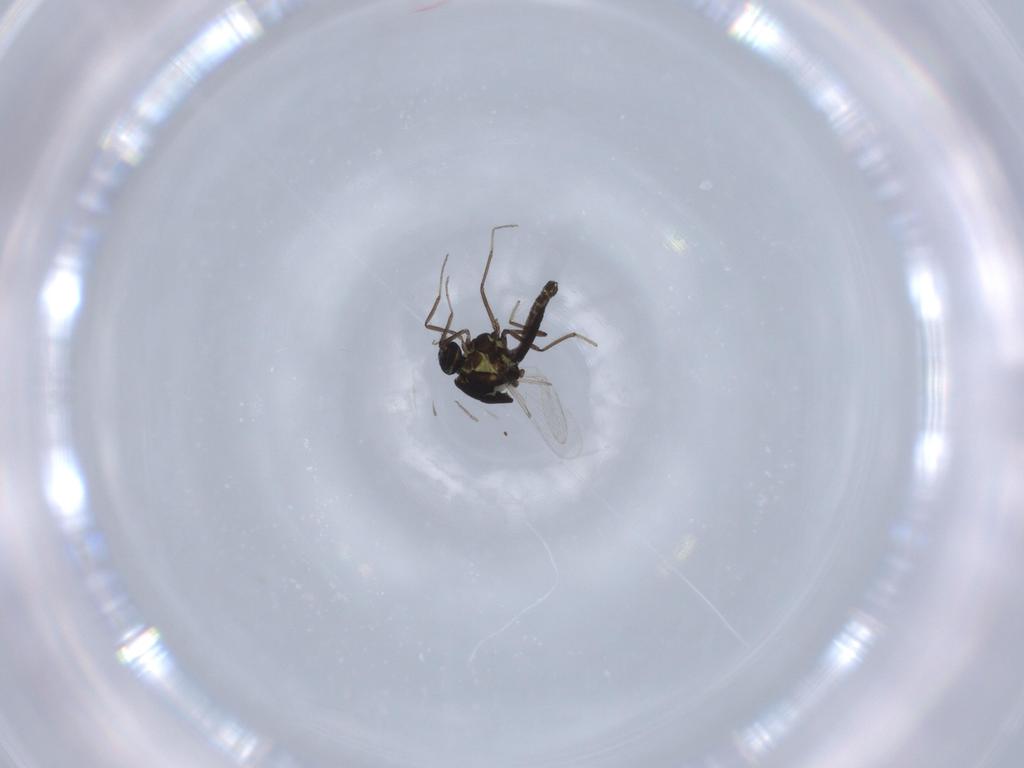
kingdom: Animalia
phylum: Arthropoda
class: Insecta
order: Diptera
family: Ceratopogonidae
